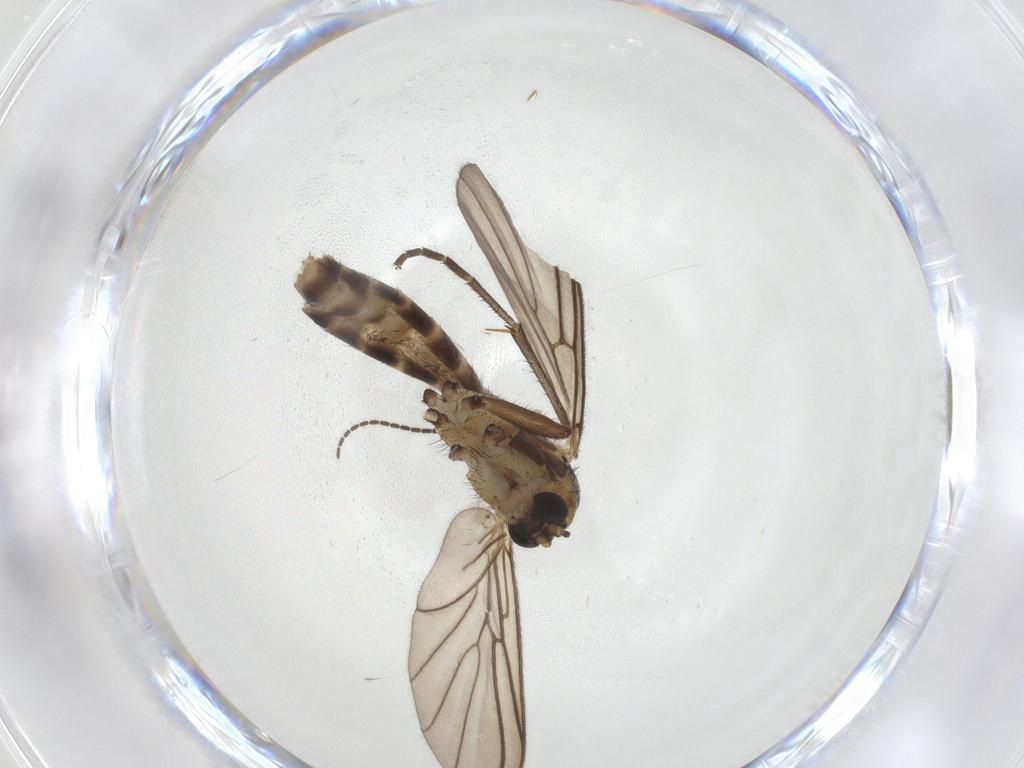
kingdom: Animalia
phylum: Arthropoda
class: Insecta
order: Diptera
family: Mycetophilidae
